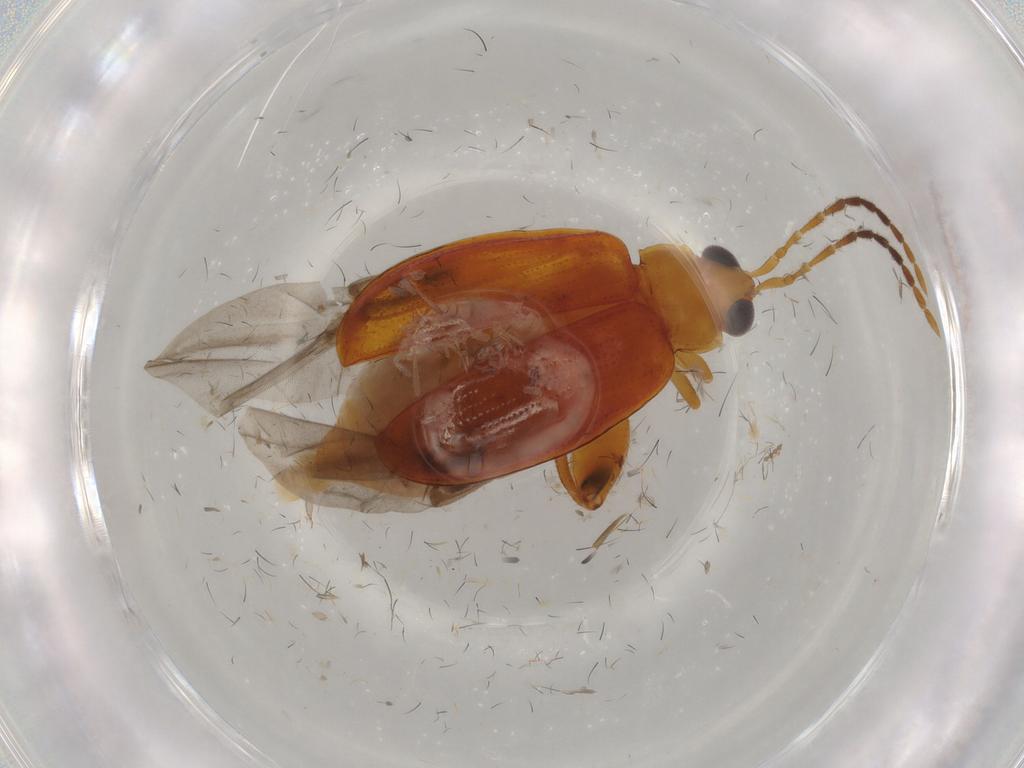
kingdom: Animalia
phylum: Arthropoda
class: Insecta
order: Coleoptera
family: Chrysomelidae
